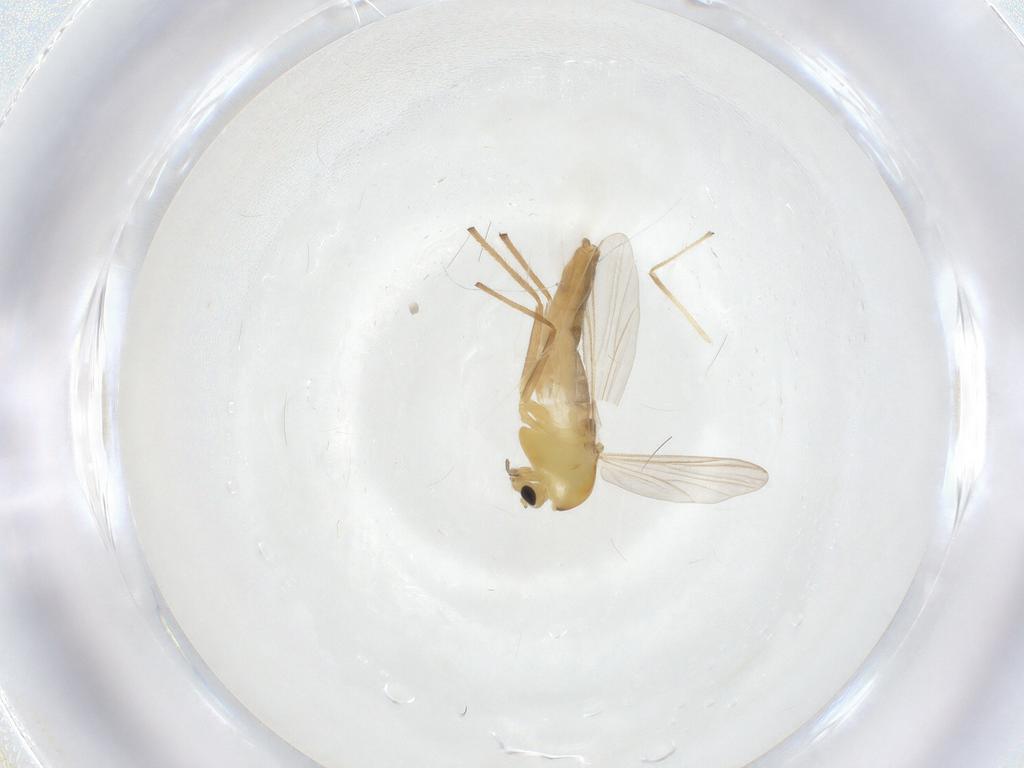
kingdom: Animalia
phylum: Arthropoda
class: Insecta
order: Diptera
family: Chironomidae
